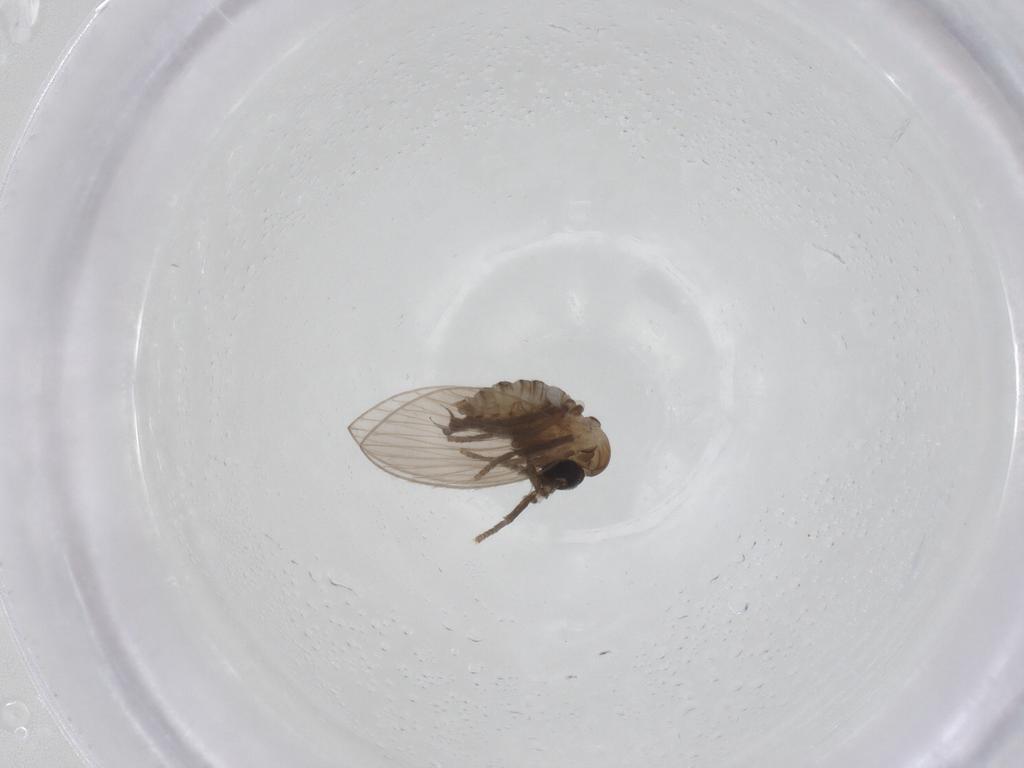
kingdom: Animalia
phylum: Arthropoda
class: Insecta
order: Diptera
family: Psychodidae
